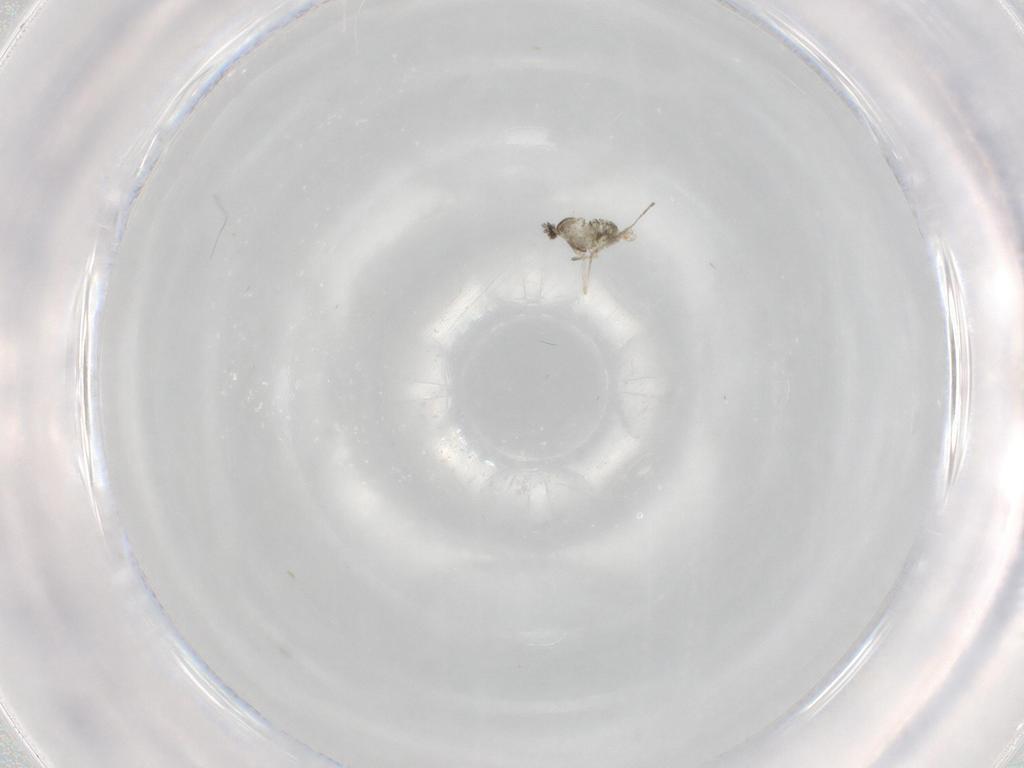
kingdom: Animalia
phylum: Arthropoda
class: Insecta
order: Diptera
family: Cecidomyiidae
